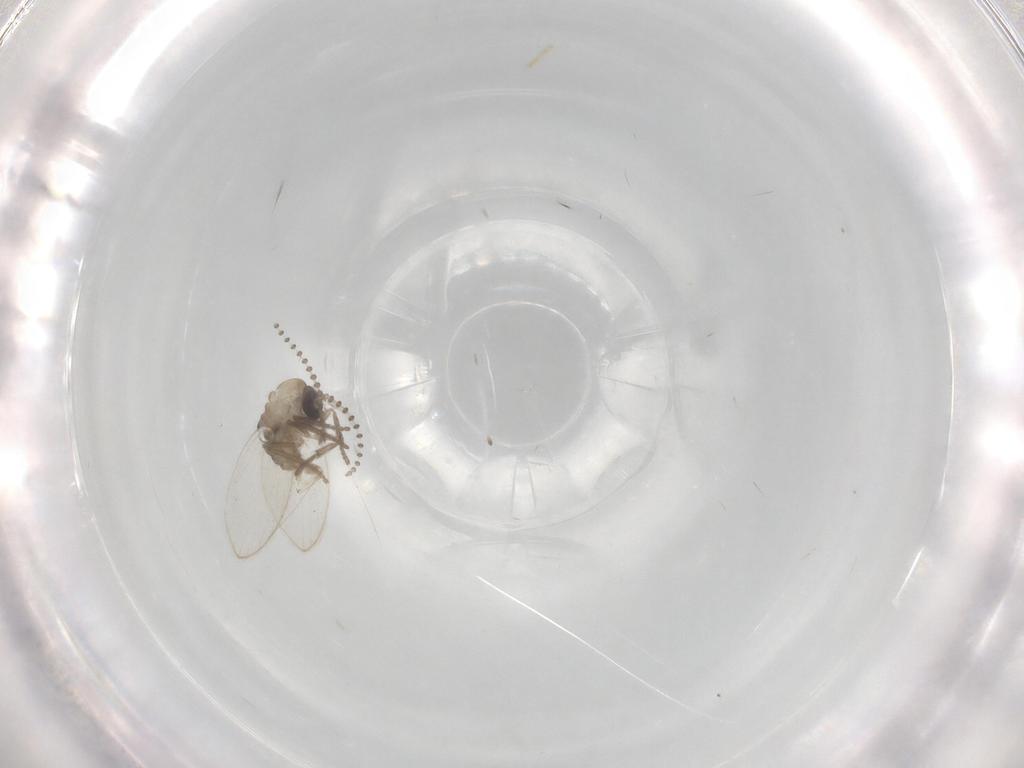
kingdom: Animalia
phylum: Arthropoda
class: Insecta
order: Diptera
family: Psychodidae
